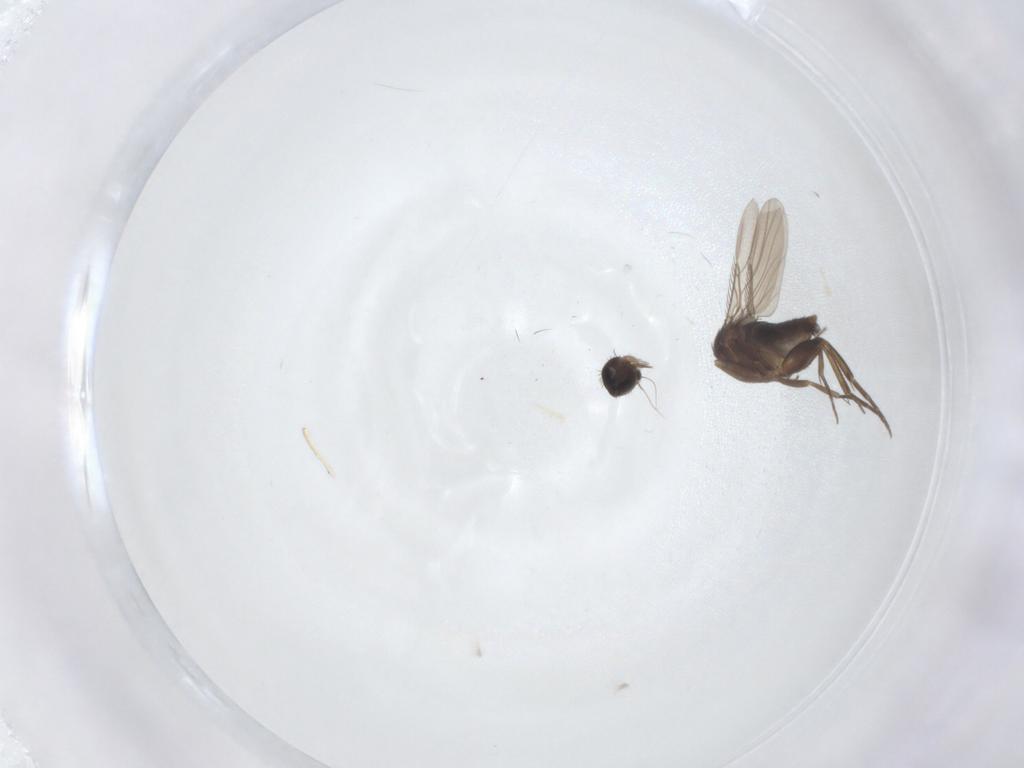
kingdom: Animalia
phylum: Arthropoda
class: Insecta
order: Diptera
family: Phoridae
